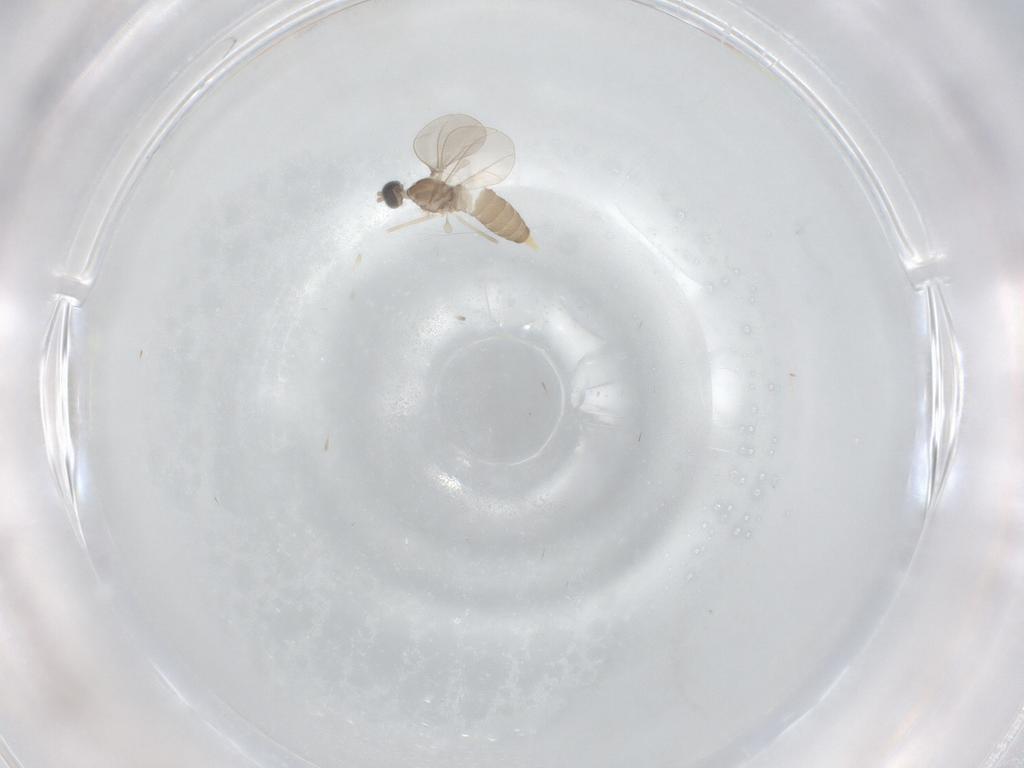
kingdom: Animalia
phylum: Arthropoda
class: Insecta
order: Diptera
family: Cecidomyiidae
